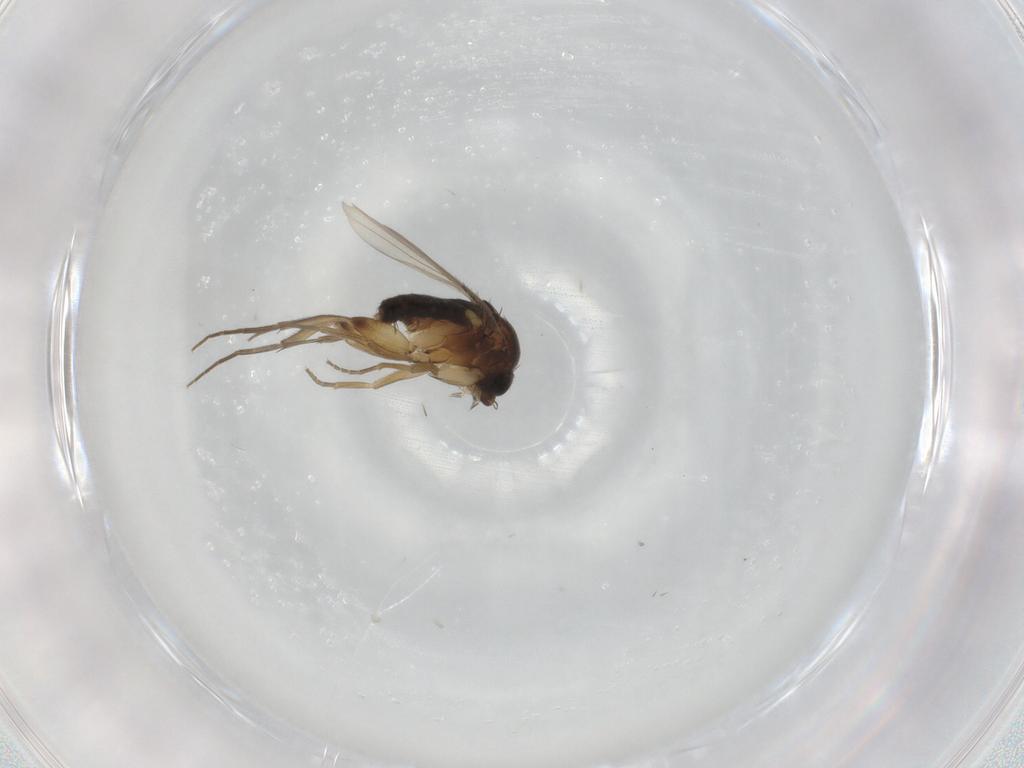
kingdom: Animalia
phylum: Arthropoda
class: Insecta
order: Diptera
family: Phoridae
